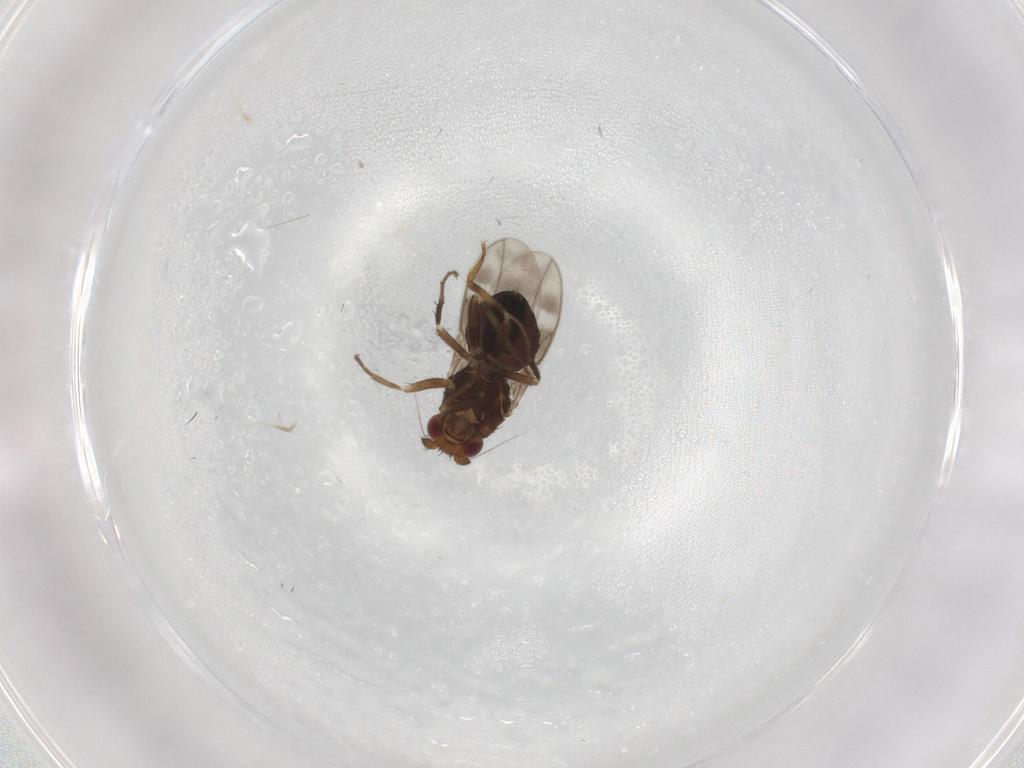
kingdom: Animalia
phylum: Arthropoda
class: Insecta
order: Diptera
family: Sphaeroceridae
